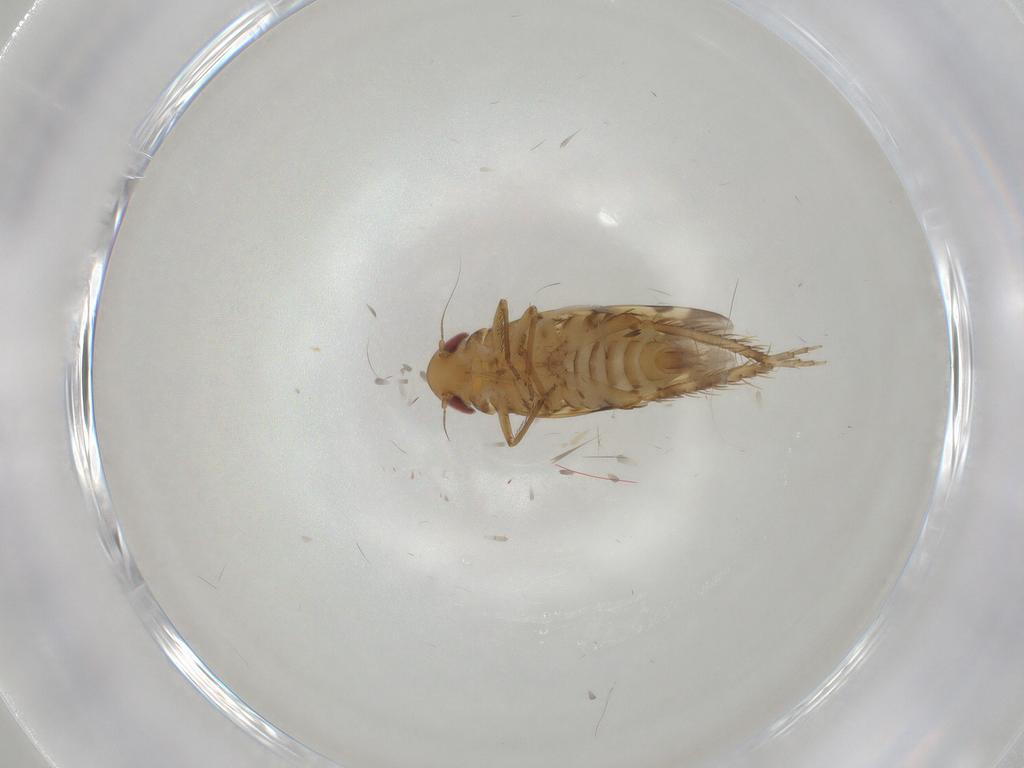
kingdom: Animalia
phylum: Arthropoda
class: Insecta
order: Hemiptera
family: Cicadellidae
